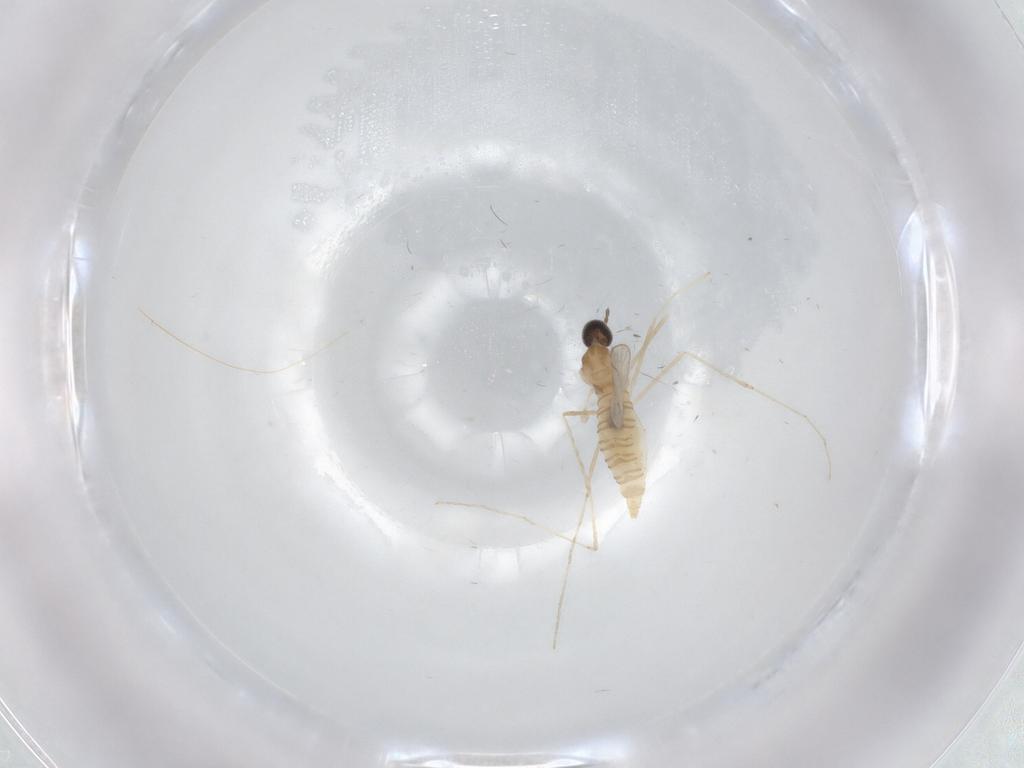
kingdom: Animalia
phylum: Arthropoda
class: Insecta
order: Diptera
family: Cecidomyiidae
